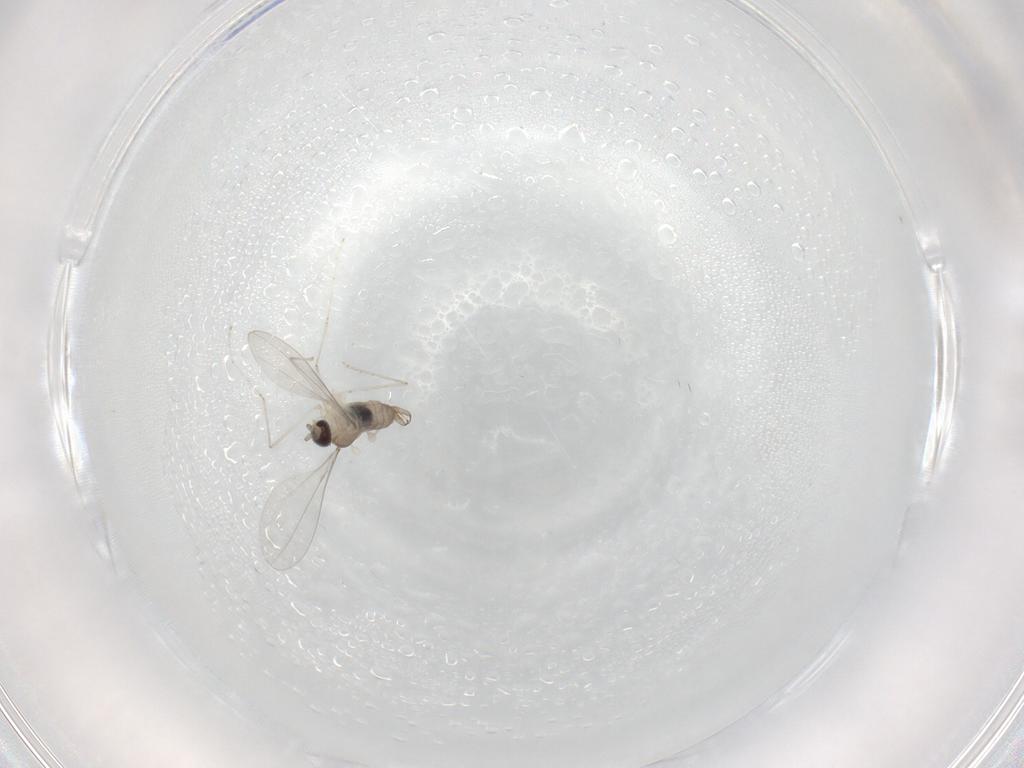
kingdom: Animalia
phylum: Arthropoda
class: Insecta
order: Diptera
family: Cecidomyiidae
